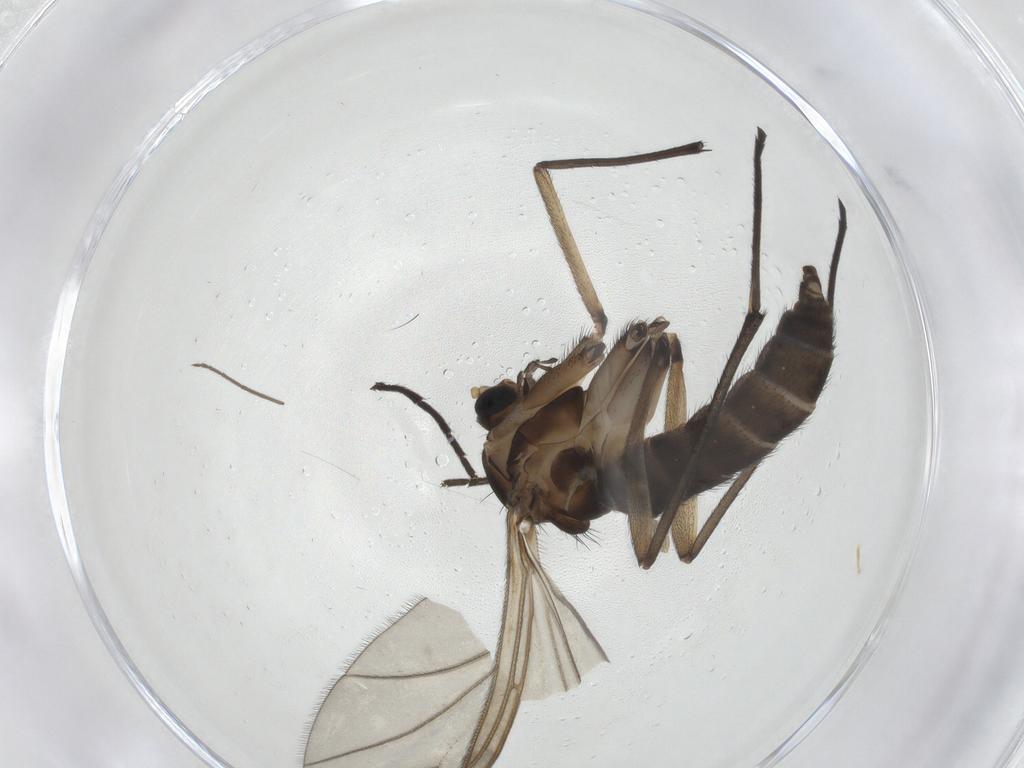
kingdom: Animalia
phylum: Arthropoda
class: Insecta
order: Diptera
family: Sciaridae
